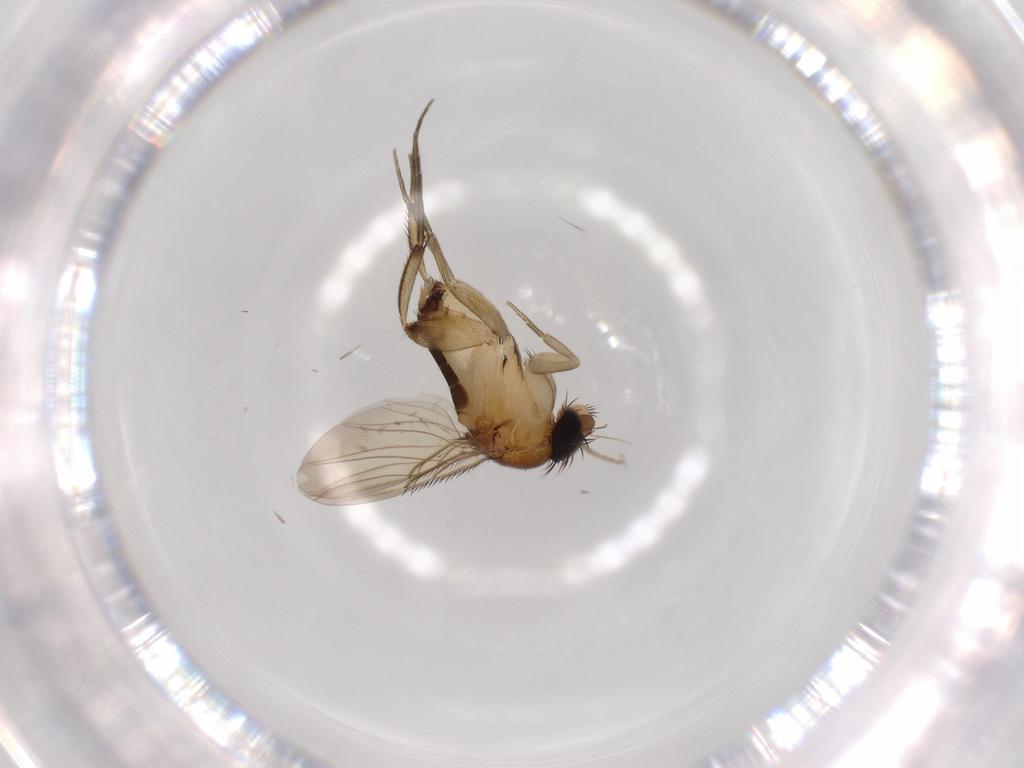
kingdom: Animalia
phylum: Arthropoda
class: Insecta
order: Diptera
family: Phoridae
